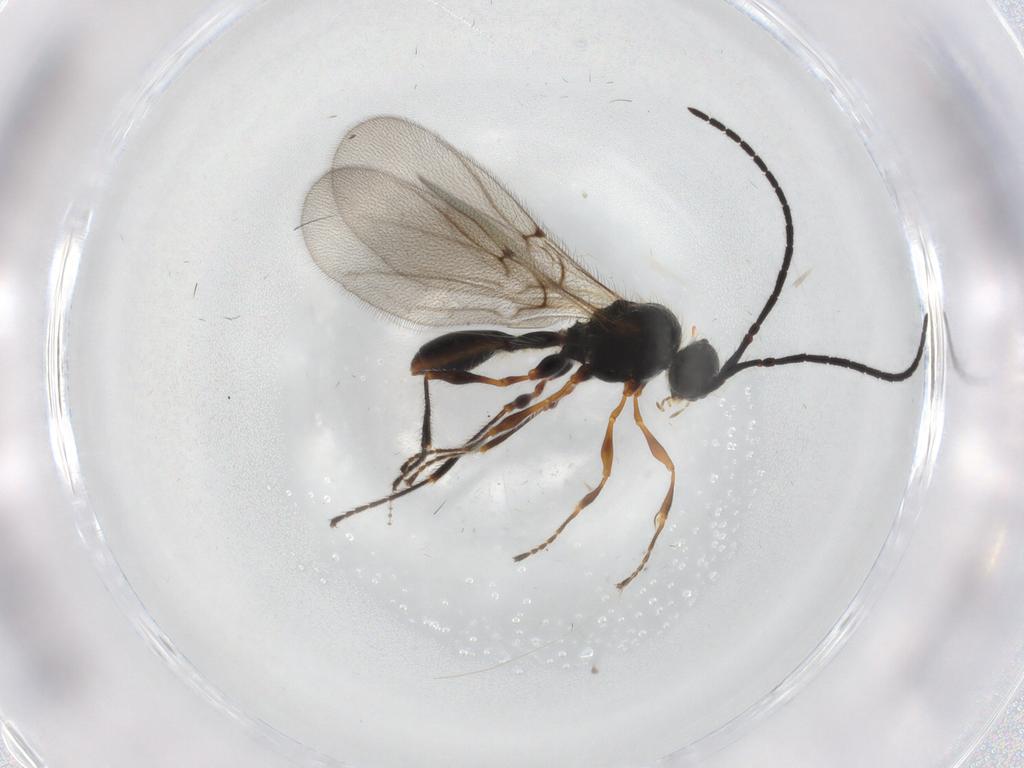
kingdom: Animalia
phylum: Arthropoda
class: Insecta
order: Hymenoptera
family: Diapriidae
